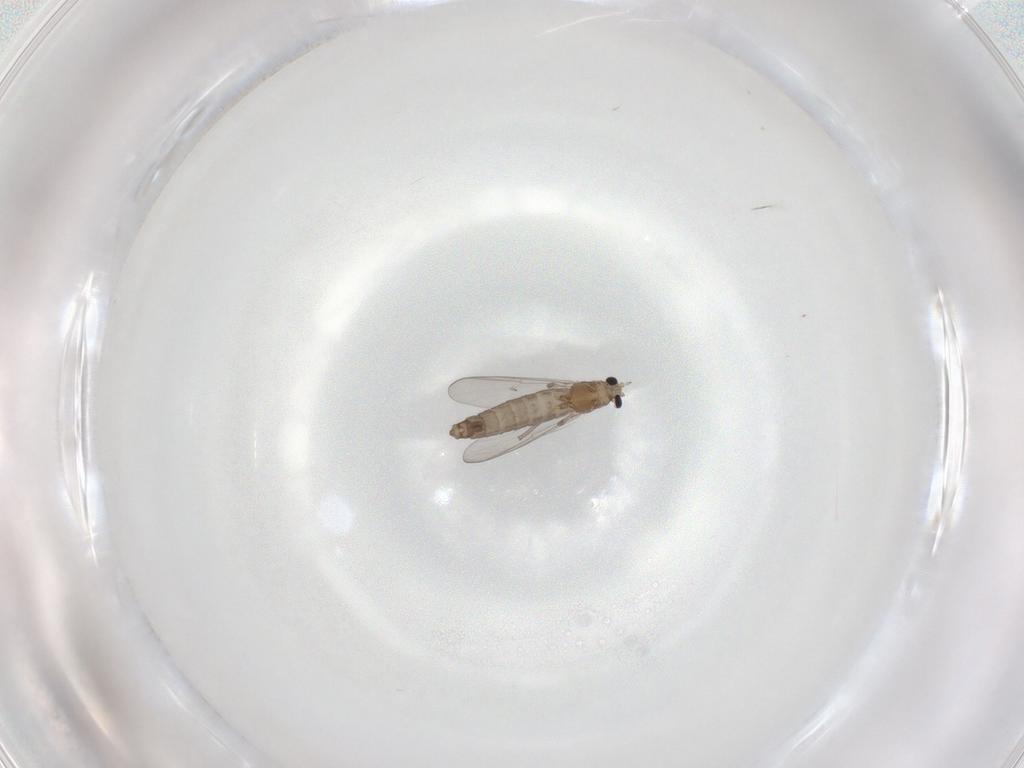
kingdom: Animalia
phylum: Arthropoda
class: Insecta
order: Diptera
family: Chironomidae
